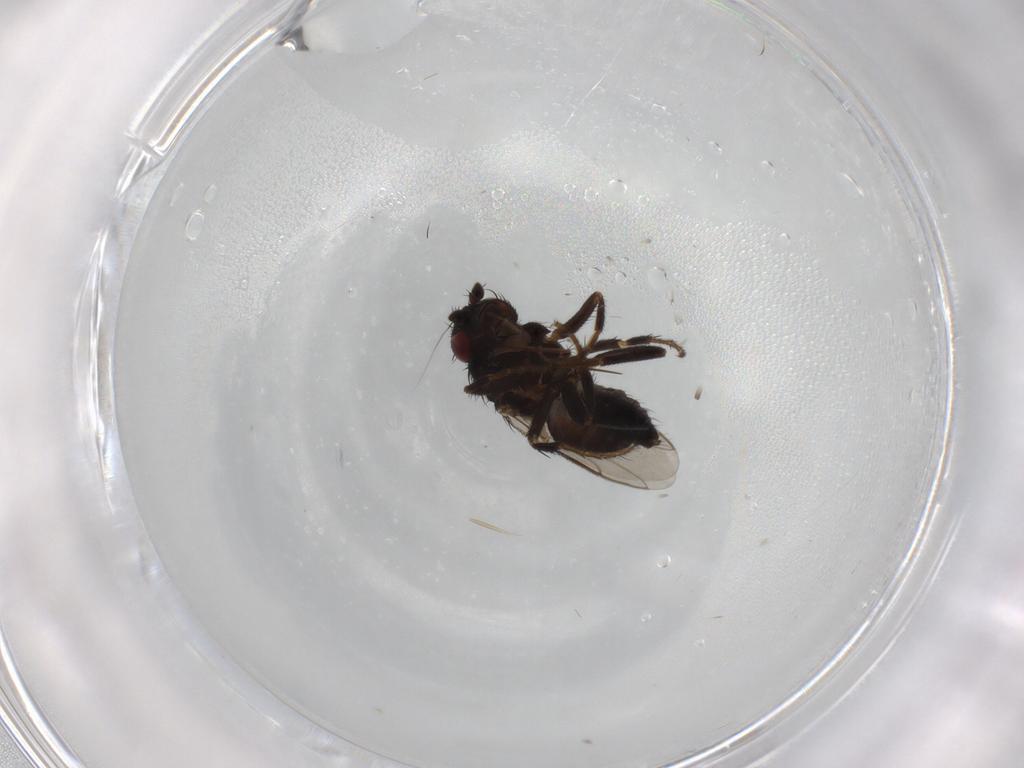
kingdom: Animalia
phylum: Arthropoda
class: Insecta
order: Diptera
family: Sphaeroceridae
